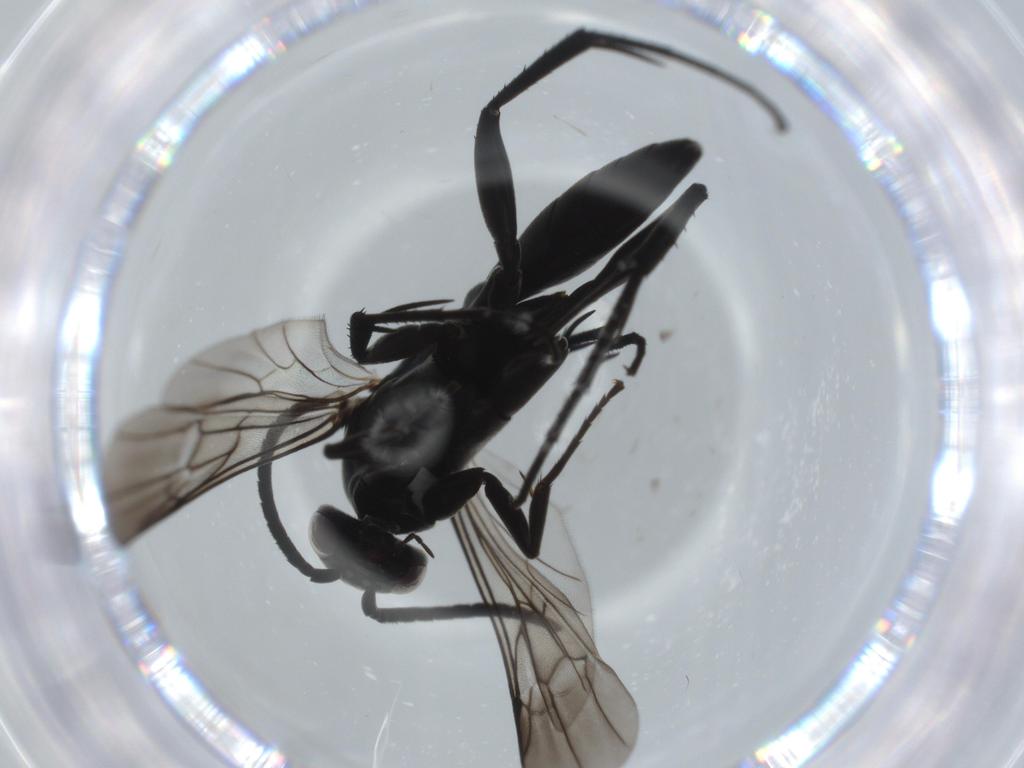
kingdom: Animalia
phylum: Arthropoda
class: Insecta
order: Hymenoptera
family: Pompilidae
